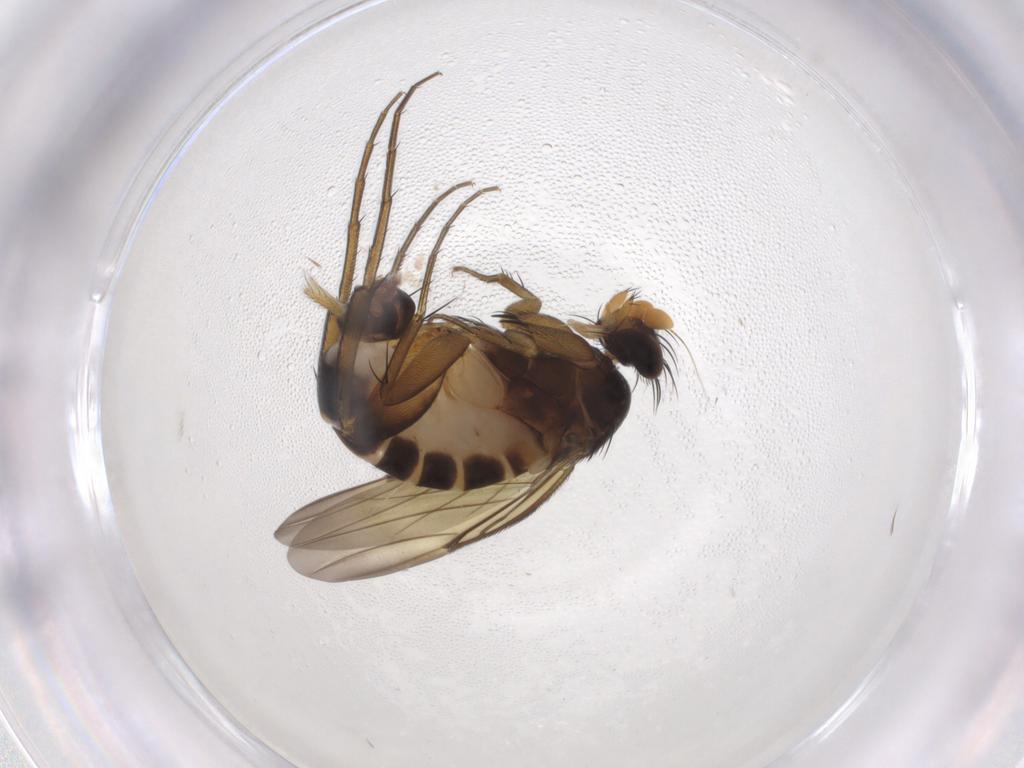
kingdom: Animalia
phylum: Arthropoda
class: Insecta
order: Diptera
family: Phoridae
